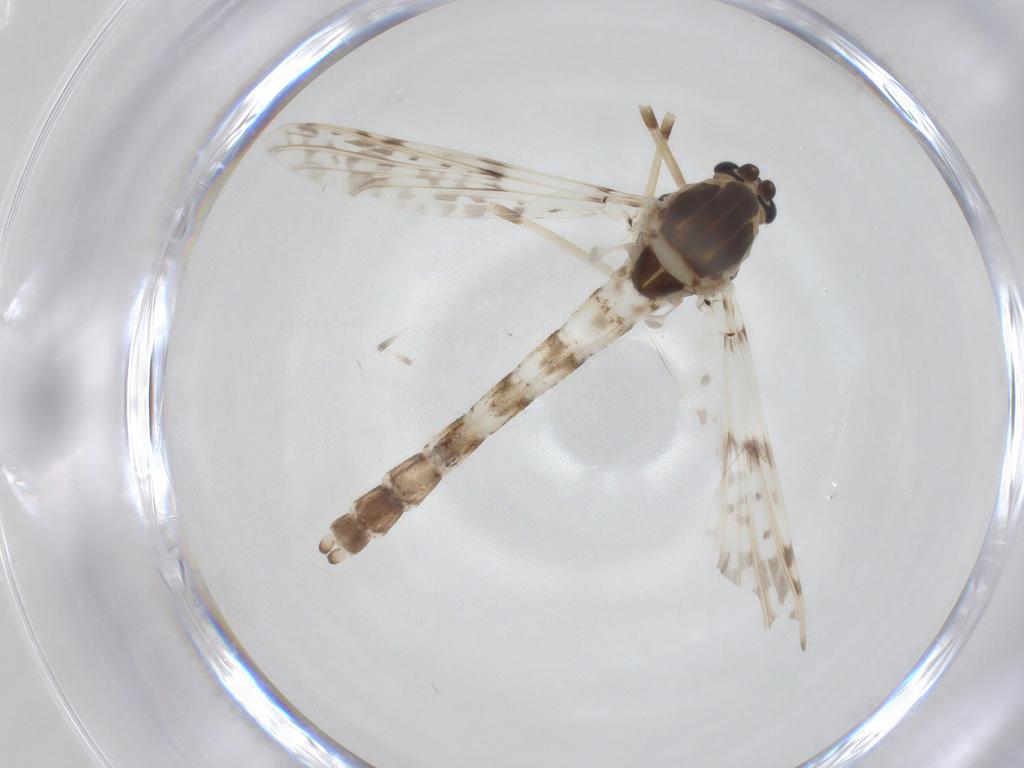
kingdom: Animalia
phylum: Arthropoda
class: Insecta
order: Diptera
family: Chironomidae
